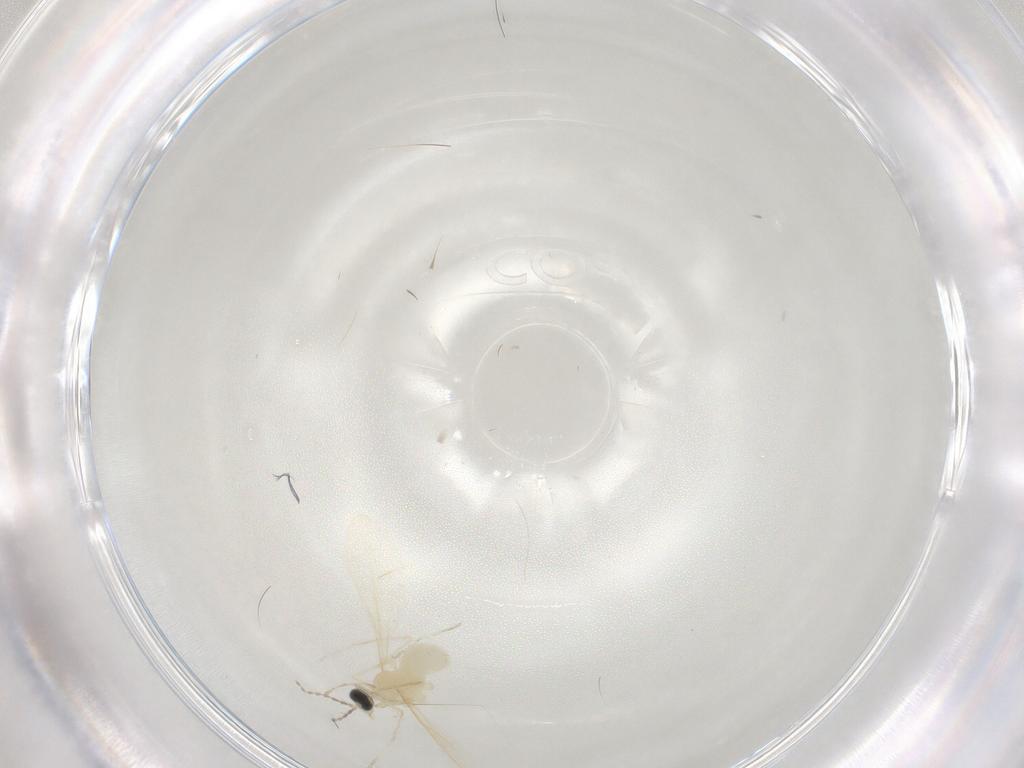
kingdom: Animalia
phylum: Arthropoda
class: Insecta
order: Diptera
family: Cecidomyiidae
